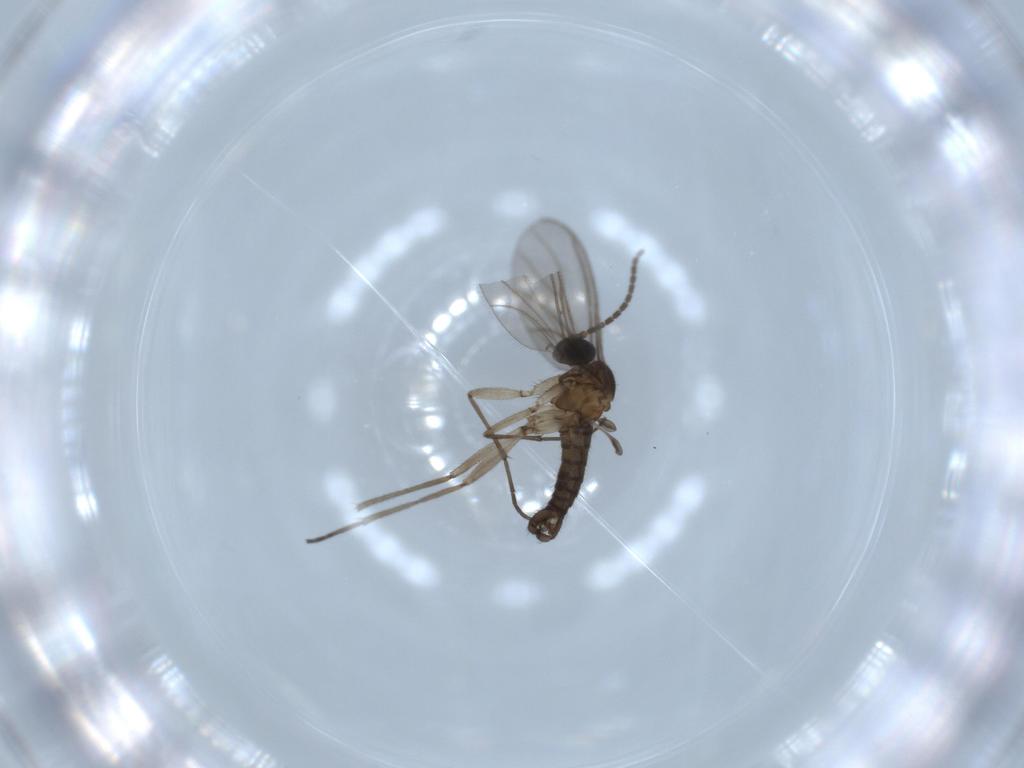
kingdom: Animalia
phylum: Arthropoda
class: Insecta
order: Diptera
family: Sciaridae
